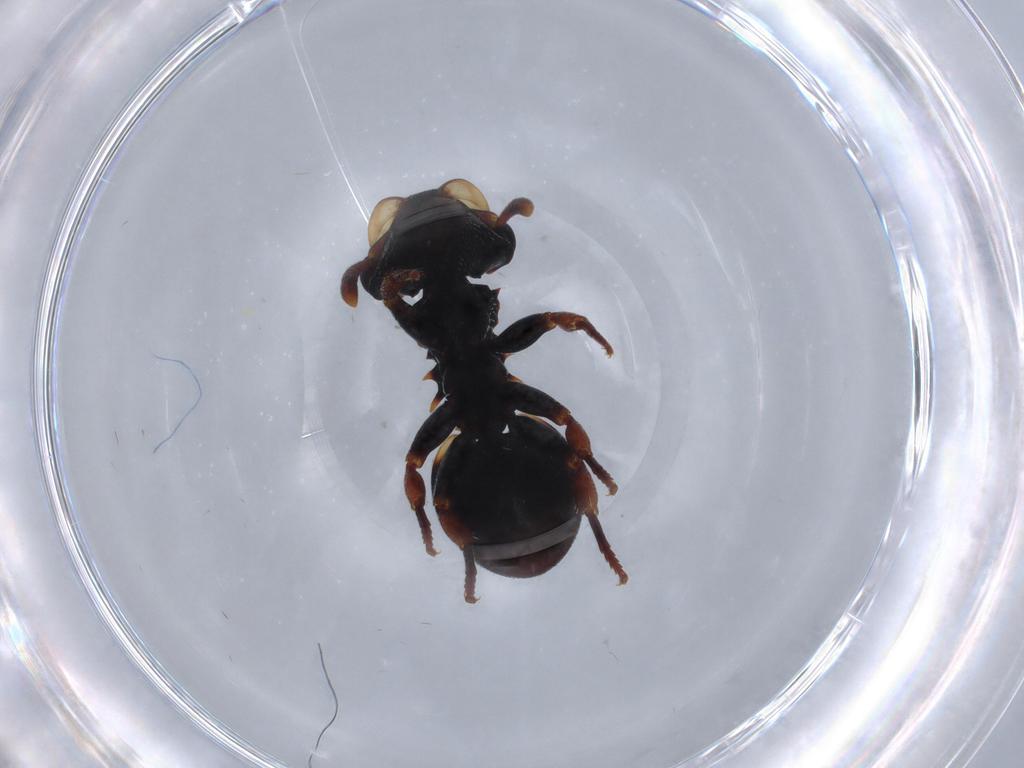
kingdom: Animalia
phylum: Arthropoda
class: Insecta
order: Hymenoptera
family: Formicidae
